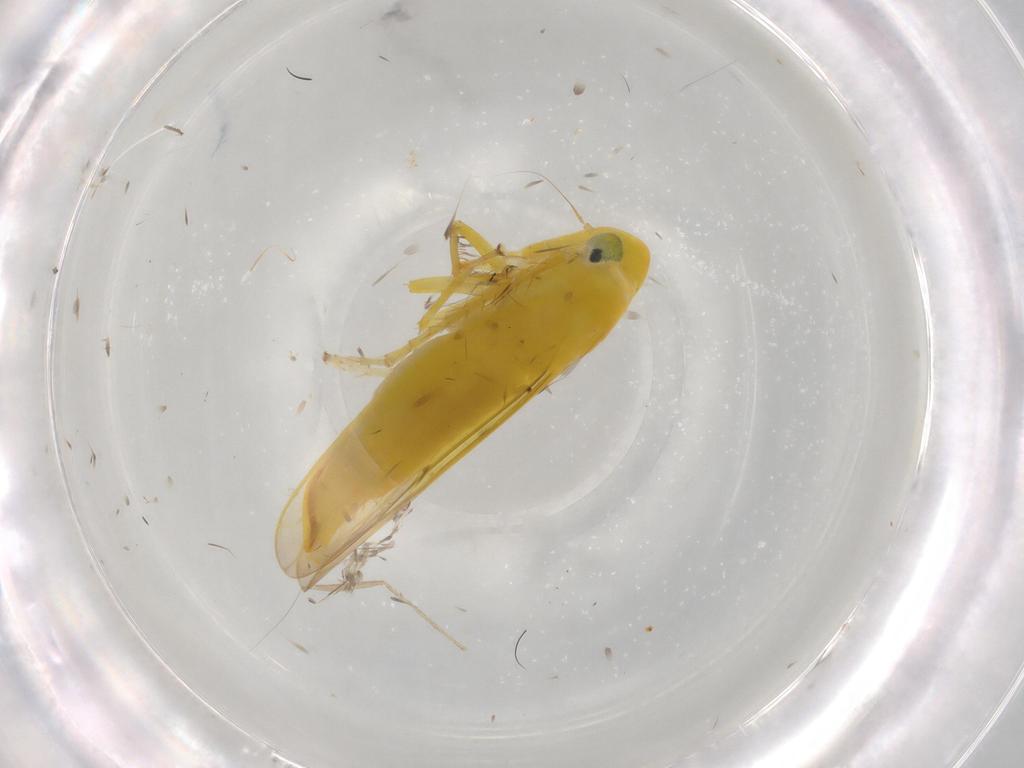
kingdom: Animalia
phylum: Arthropoda
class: Insecta
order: Hemiptera
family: Cicadellidae
